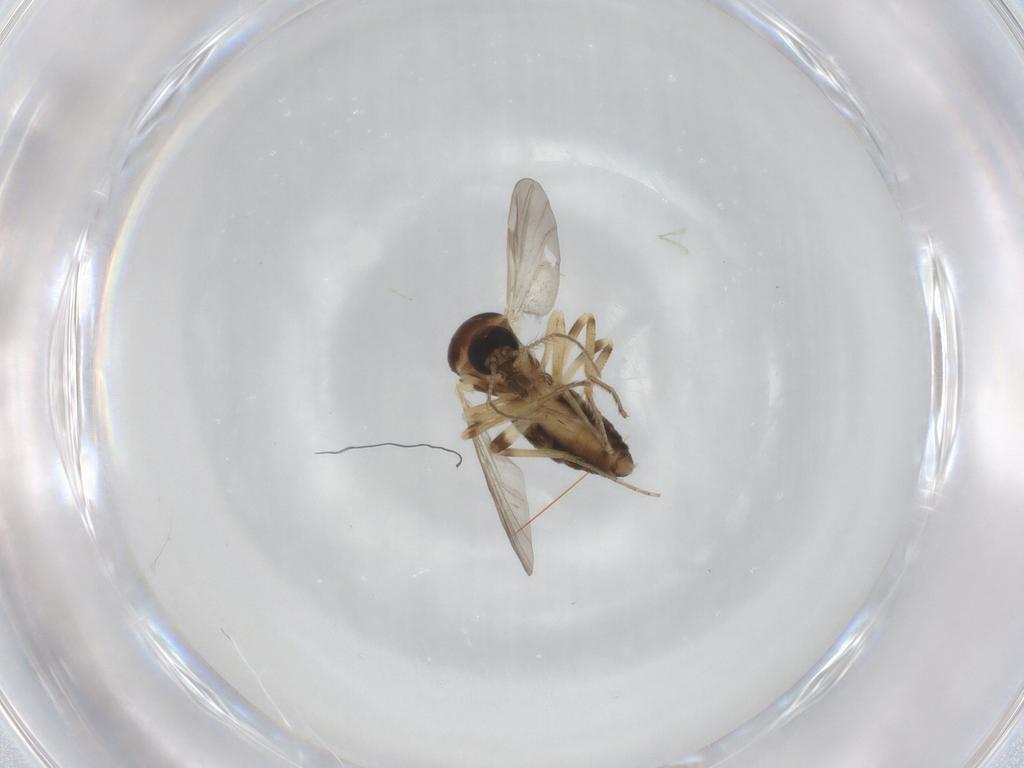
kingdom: Animalia
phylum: Arthropoda
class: Insecta
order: Diptera
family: Ceratopogonidae
